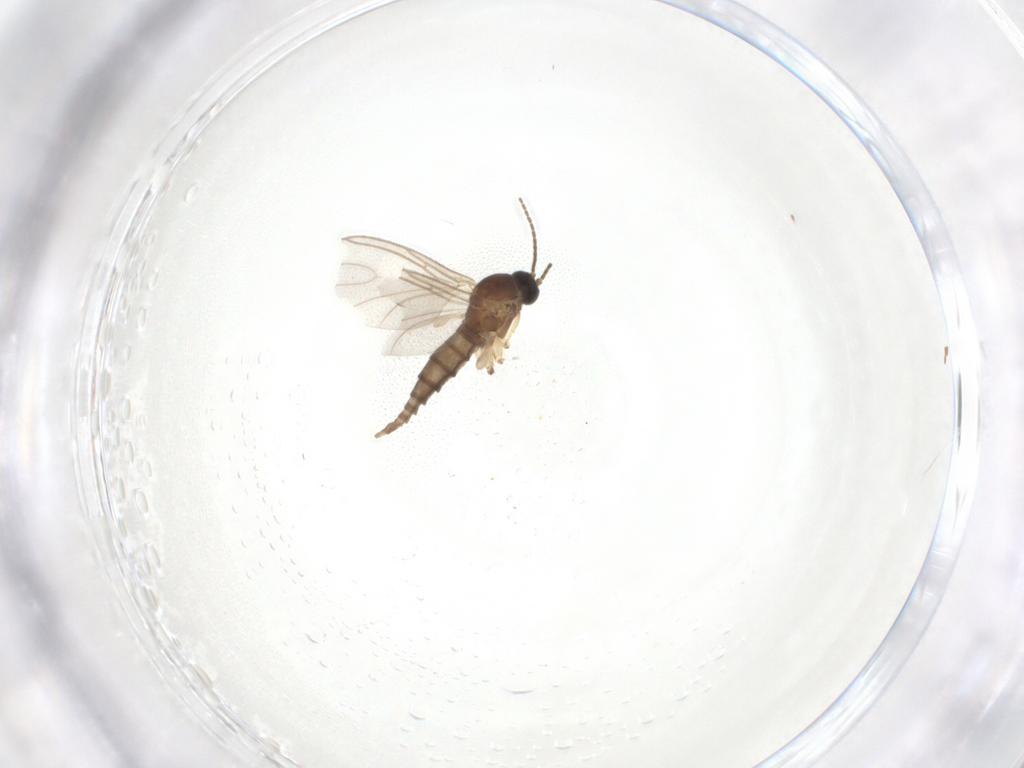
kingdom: Animalia
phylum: Arthropoda
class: Insecta
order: Diptera
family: Sciaridae
